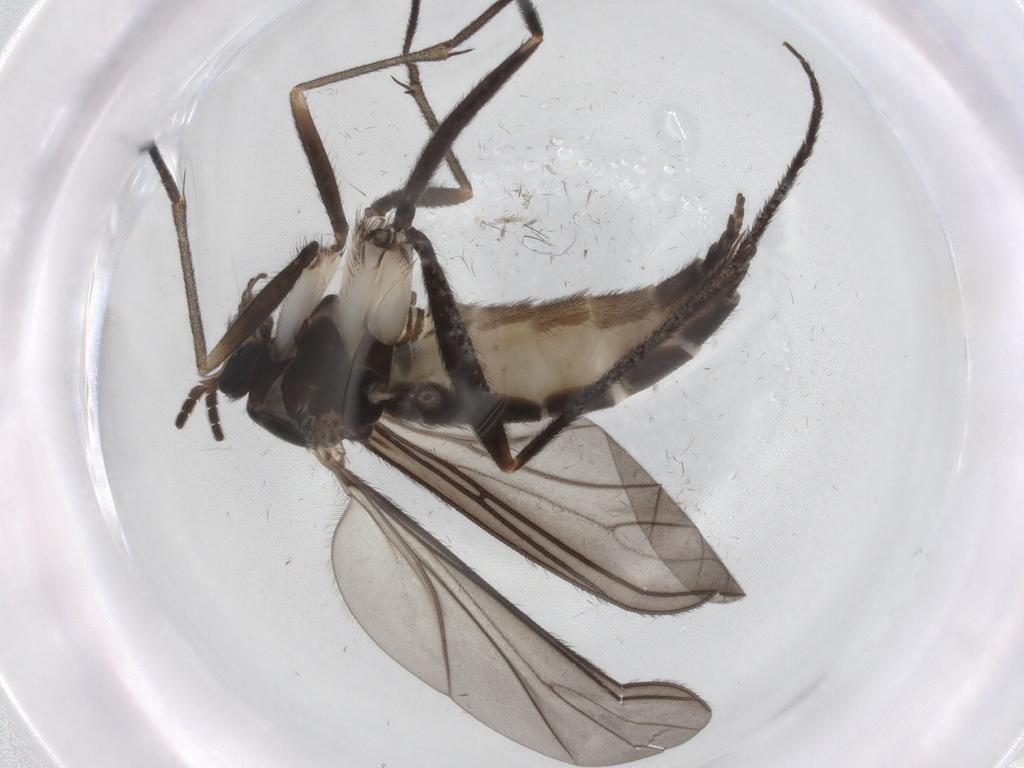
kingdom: Animalia
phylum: Arthropoda
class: Insecta
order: Diptera
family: Sciaridae
